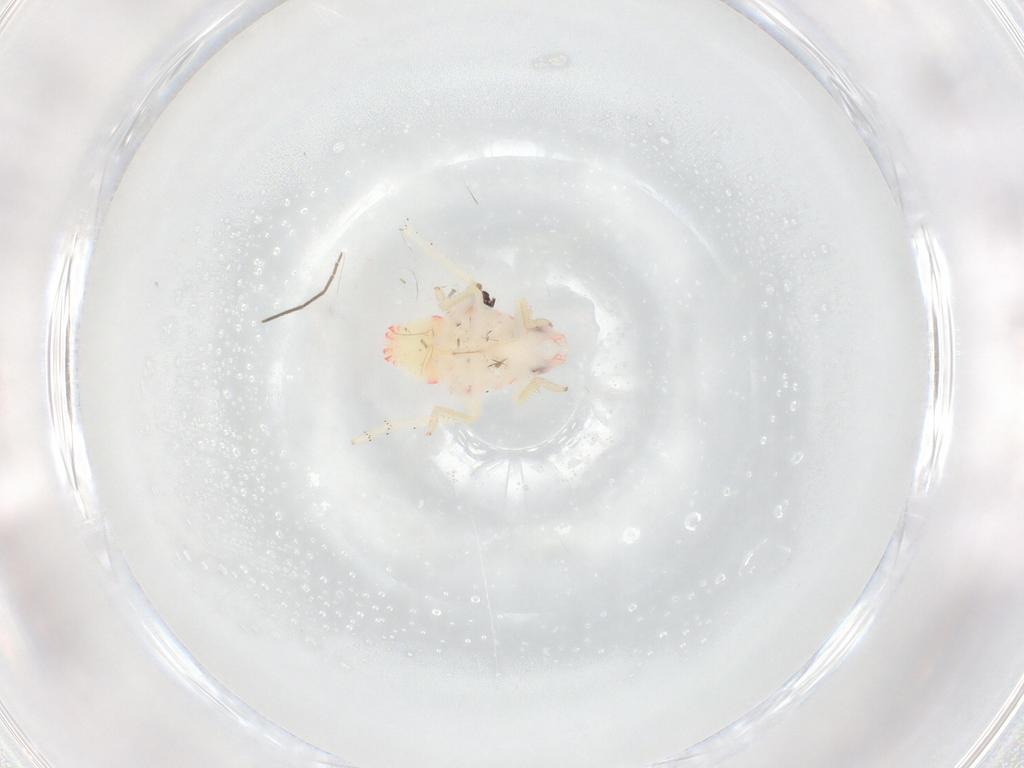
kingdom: Animalia
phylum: Arthropoda
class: Insecta
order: Hemiptera
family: Tropiduchidae
